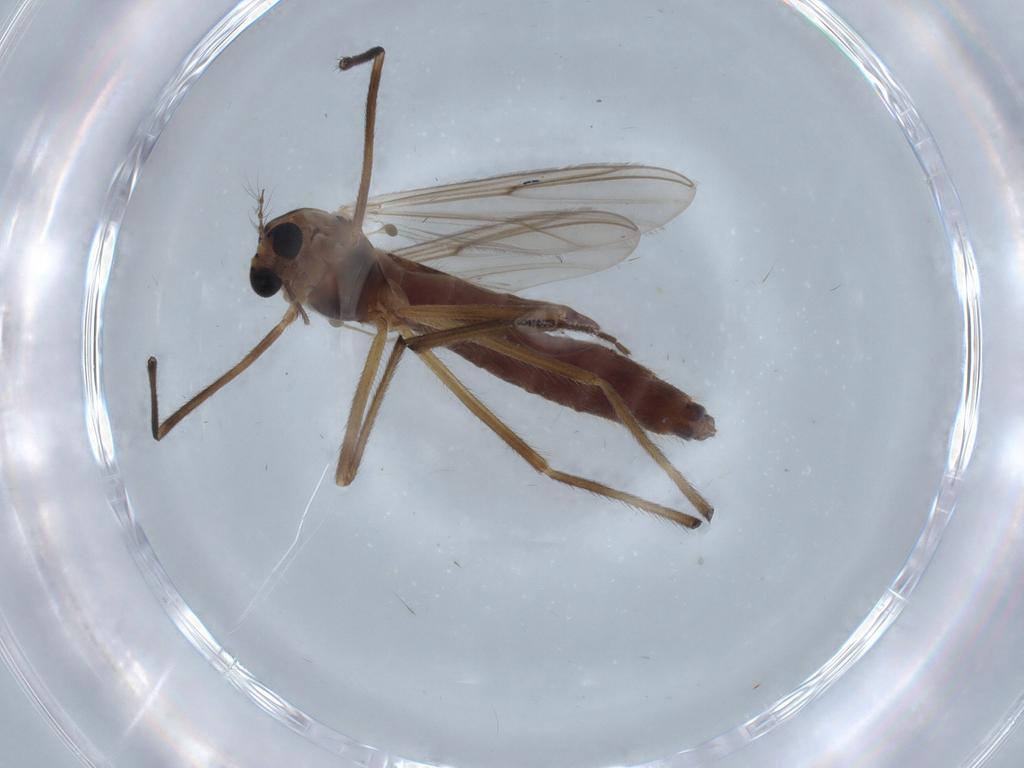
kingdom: Animalia
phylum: Arthropoda
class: Insecta
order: Diptera
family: Chironomidae
